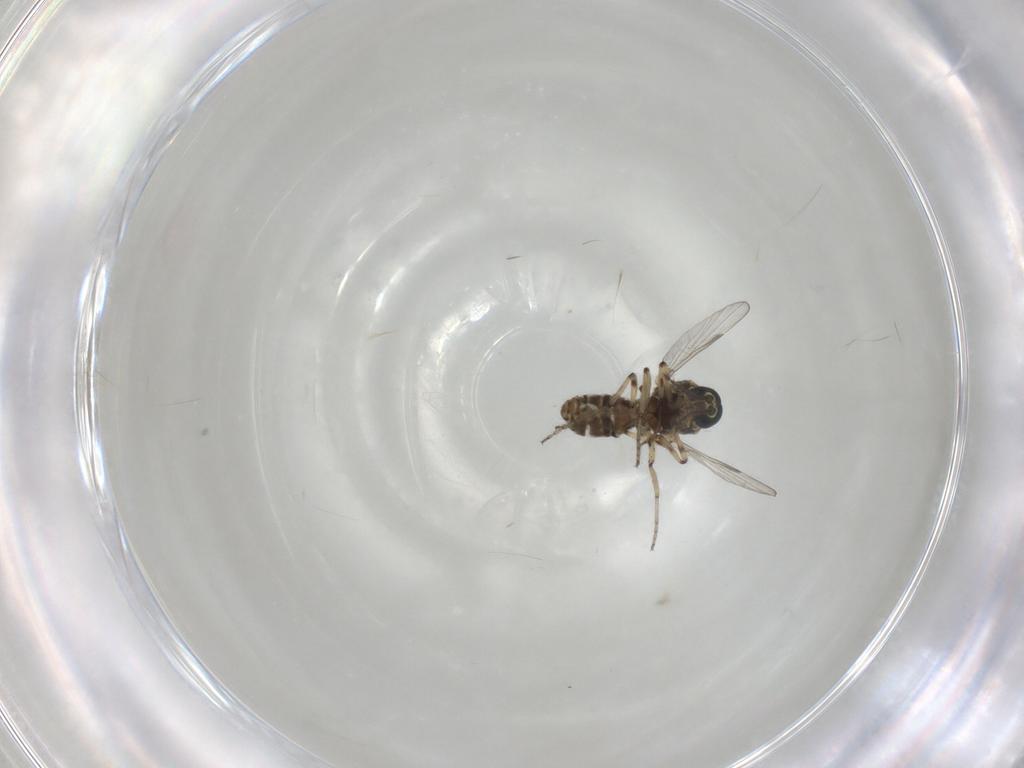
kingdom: Animalia
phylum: Arthropoda
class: Insecta
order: Diptera
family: Ceratopogonidae
